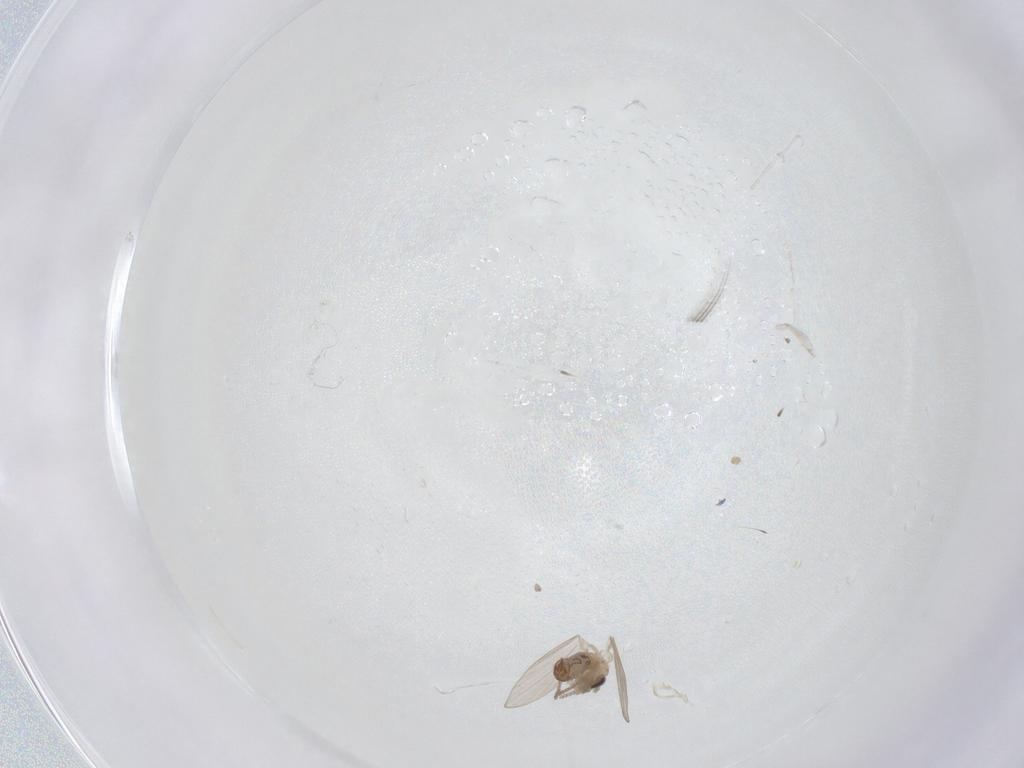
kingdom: Animalia
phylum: Arthropoda
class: Insecta
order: Diptera
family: Psychodidae
